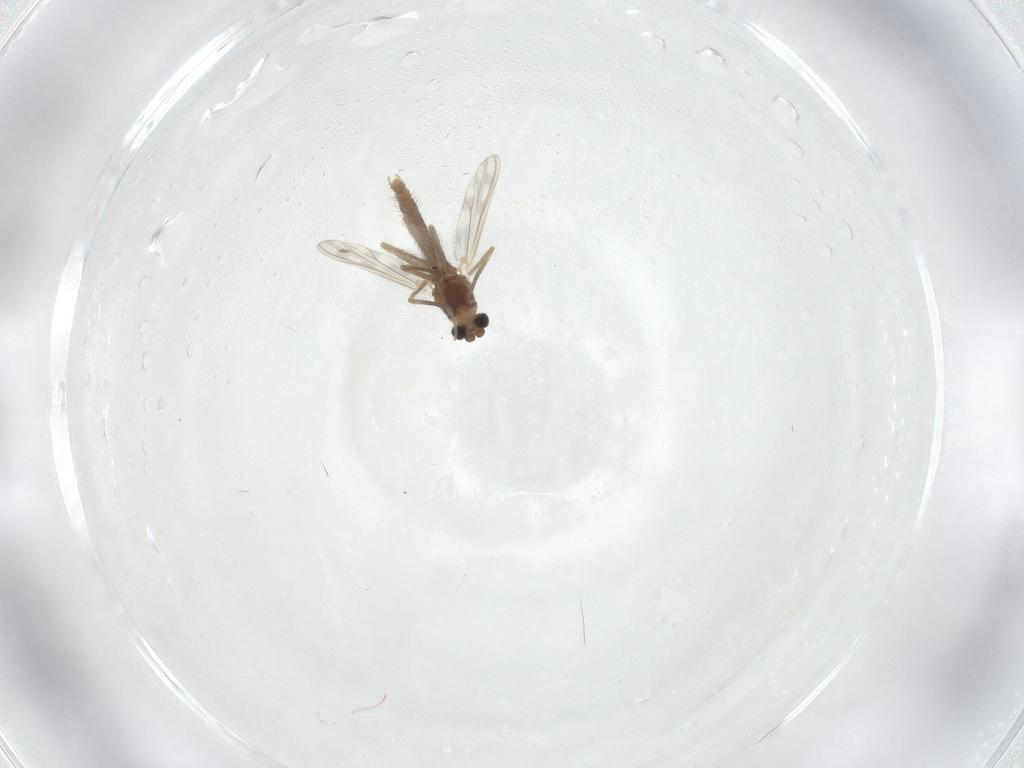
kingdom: Animalia
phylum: Arthropoda
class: Insecta
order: Diptera
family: Chironomidae
